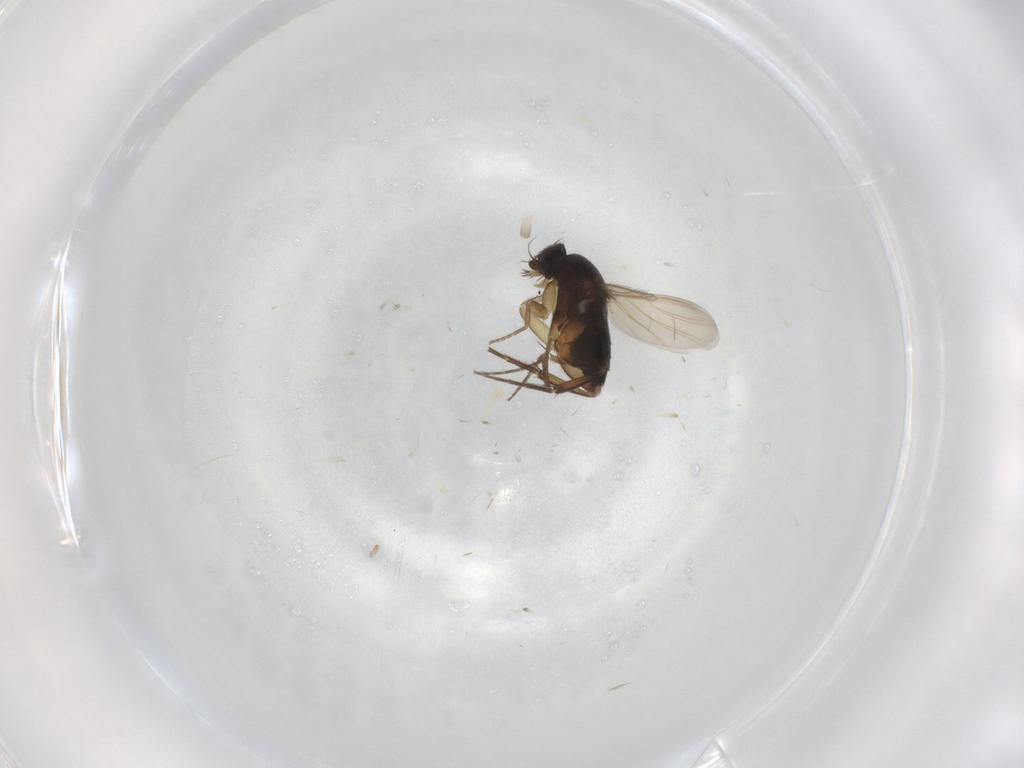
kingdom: Animalia
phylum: Arthropoda
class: Insecta
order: Diptera
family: Phoridae
